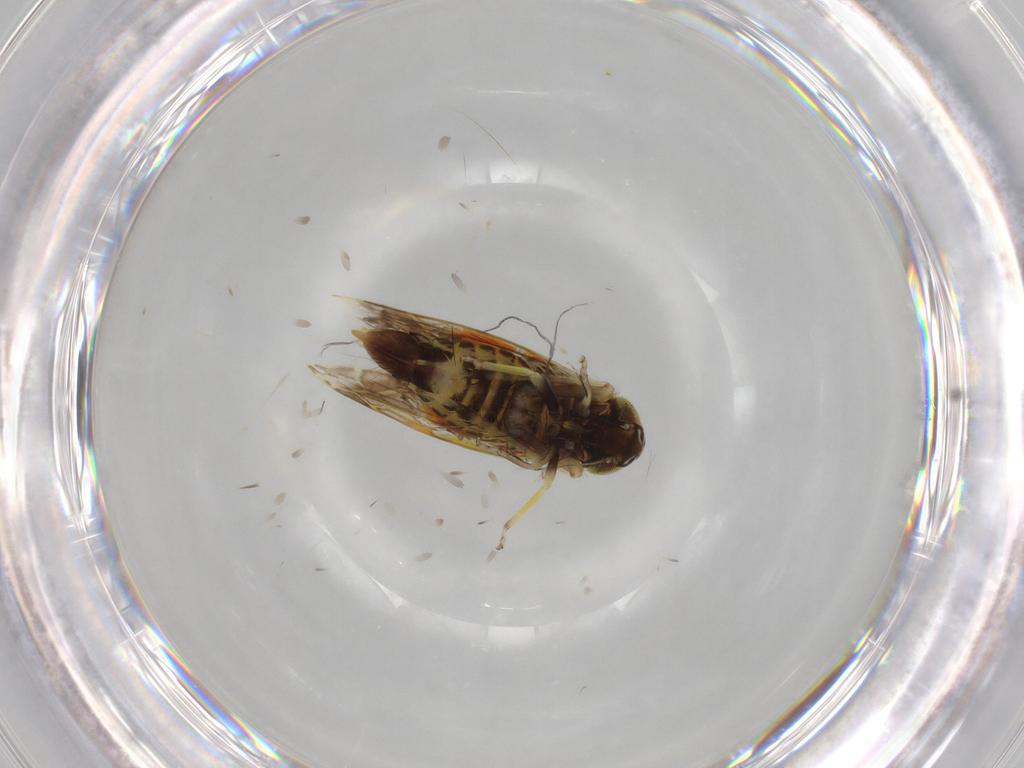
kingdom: Animalia
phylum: Arthropoda
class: Insecta
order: Hemiptera
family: Cicadellidae
